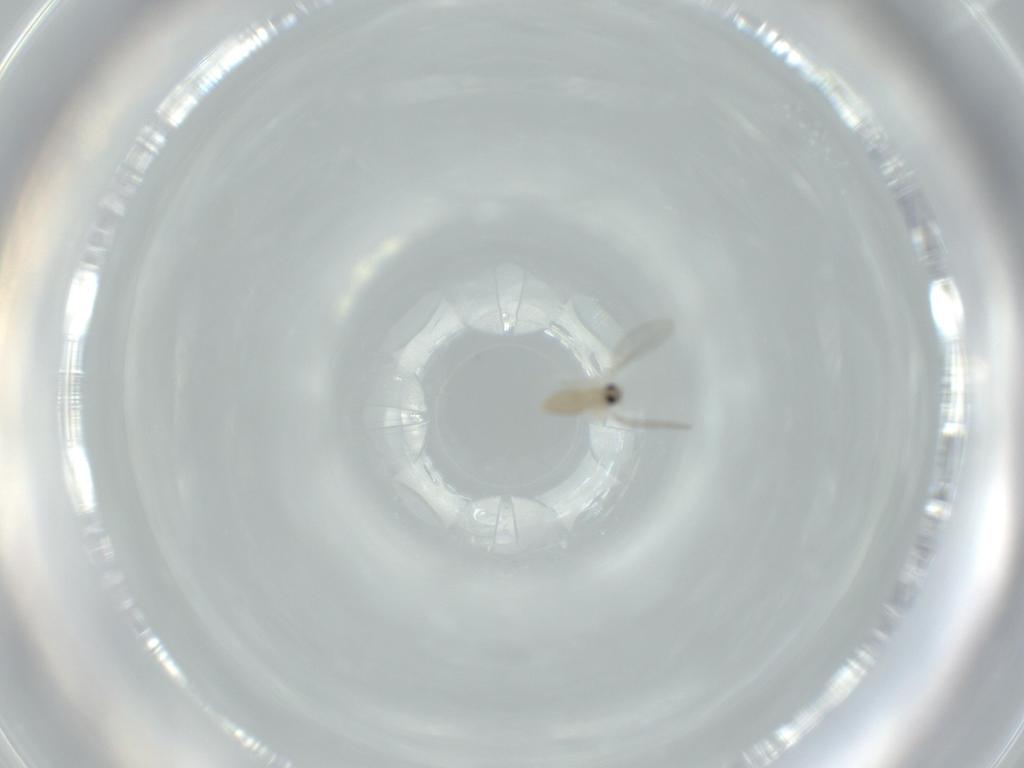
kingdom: Animalia
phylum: Arthropoda
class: Insecta
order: Diptera
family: Cecidomyiidae
